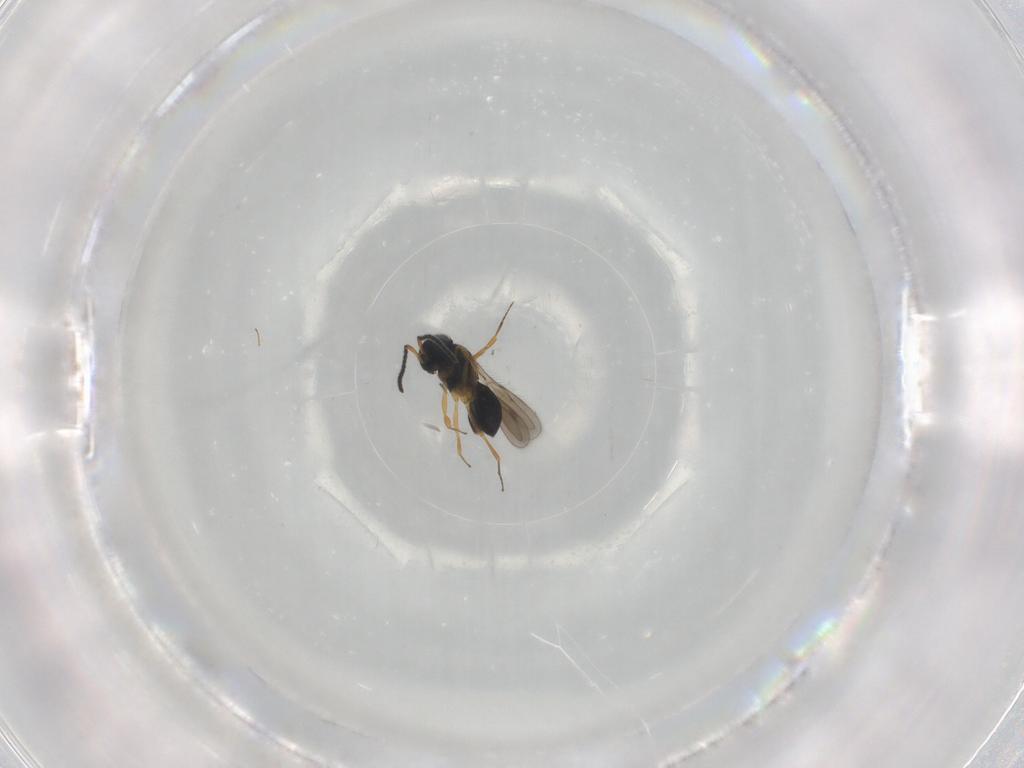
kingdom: Animalia
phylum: Arthropoda
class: Insecta
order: Hymenoptera
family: Scelionidae
